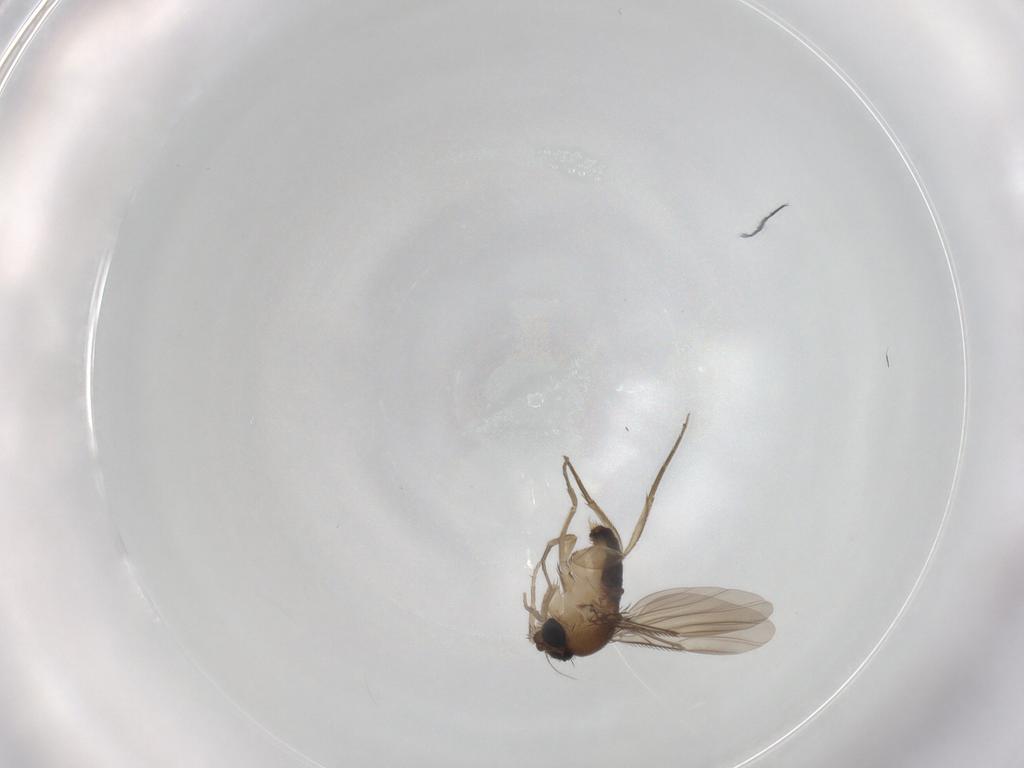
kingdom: Animalia
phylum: Arthropoda
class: Insecta
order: Diptera
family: Phoridae
